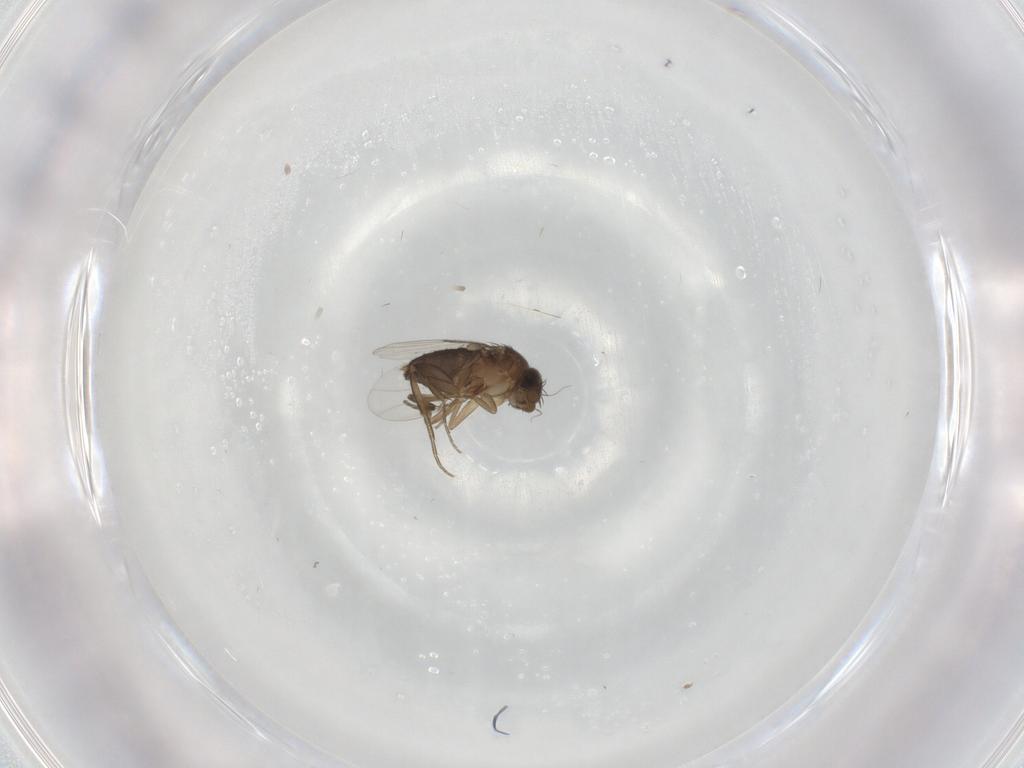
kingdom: Animalia
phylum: Arthropoda
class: Insecta
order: Diptera
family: Phoridae
